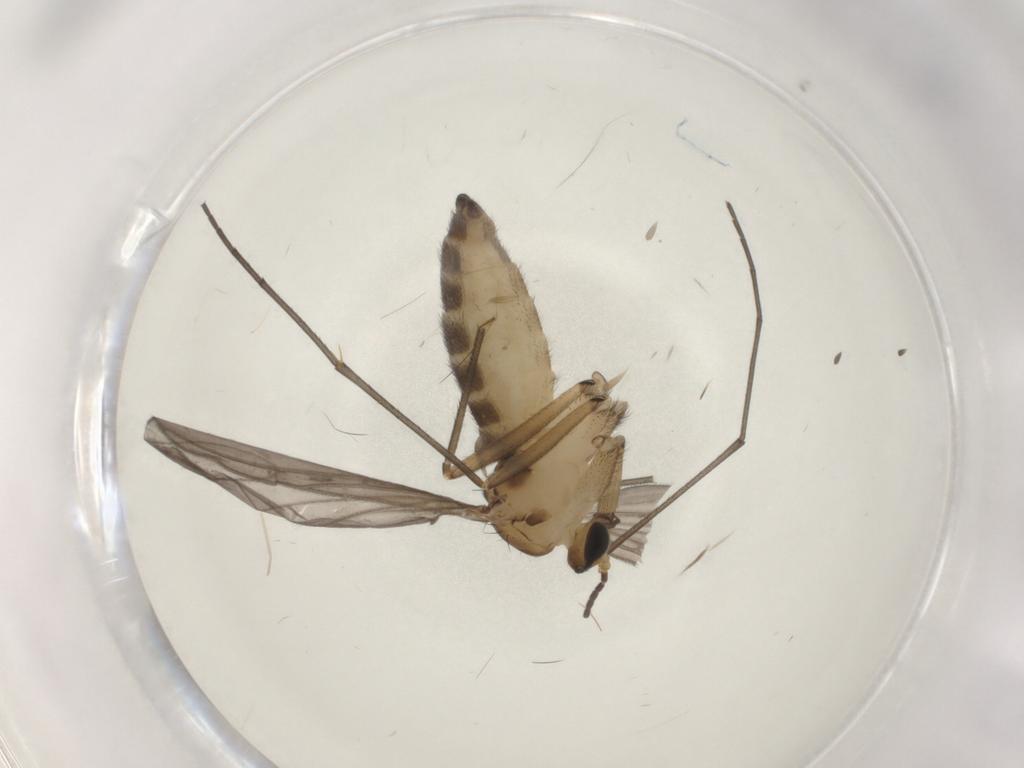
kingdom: Animalia
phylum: Arthropoda
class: Insecta
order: Diptera
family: Sciaridae
